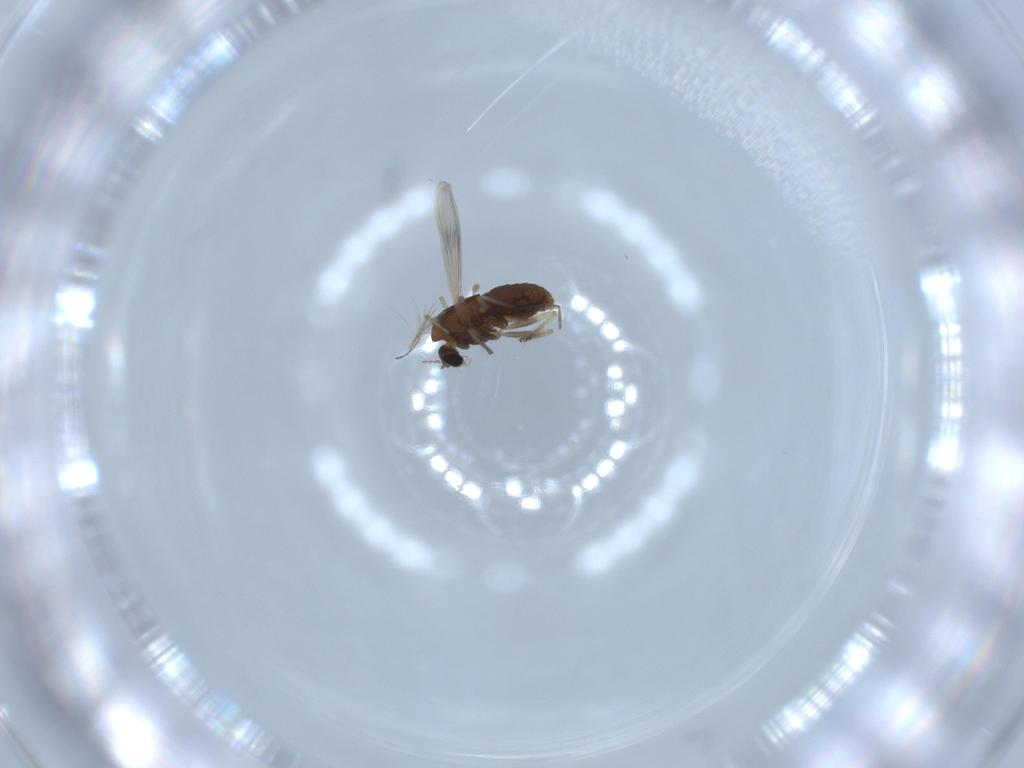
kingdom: Animalia
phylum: Arthropoda
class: Insecta
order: Diptera
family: Chironomidae
